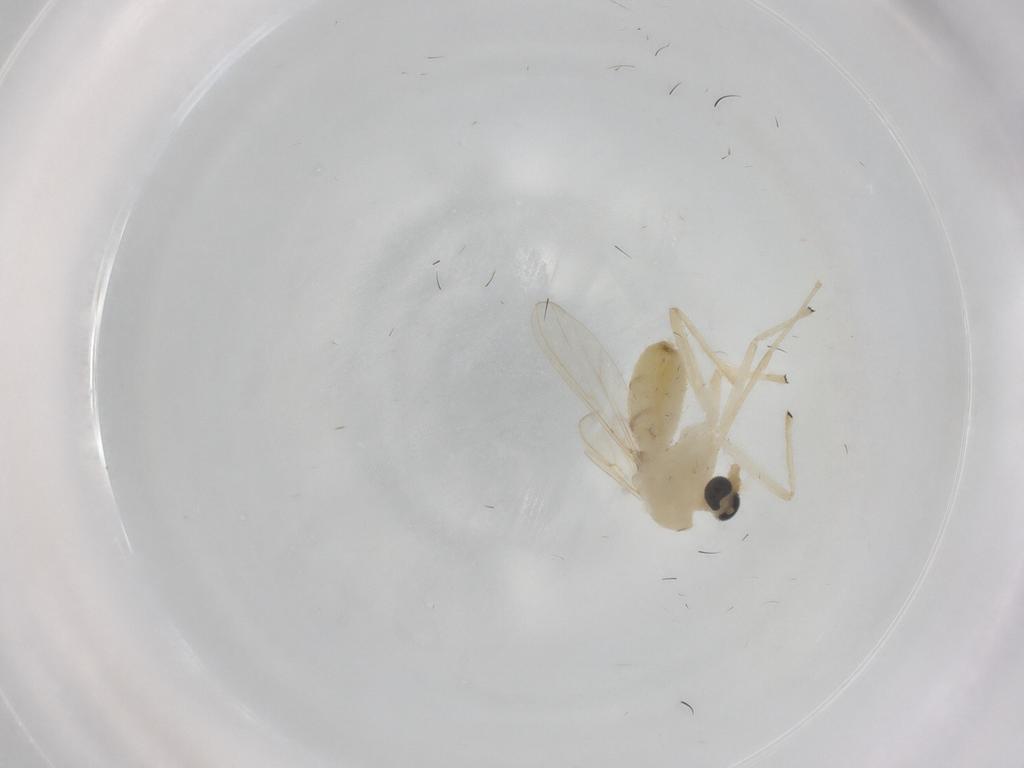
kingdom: Animalia
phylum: Arthropoda
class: Insecta
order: Diptera
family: Chironomidae
